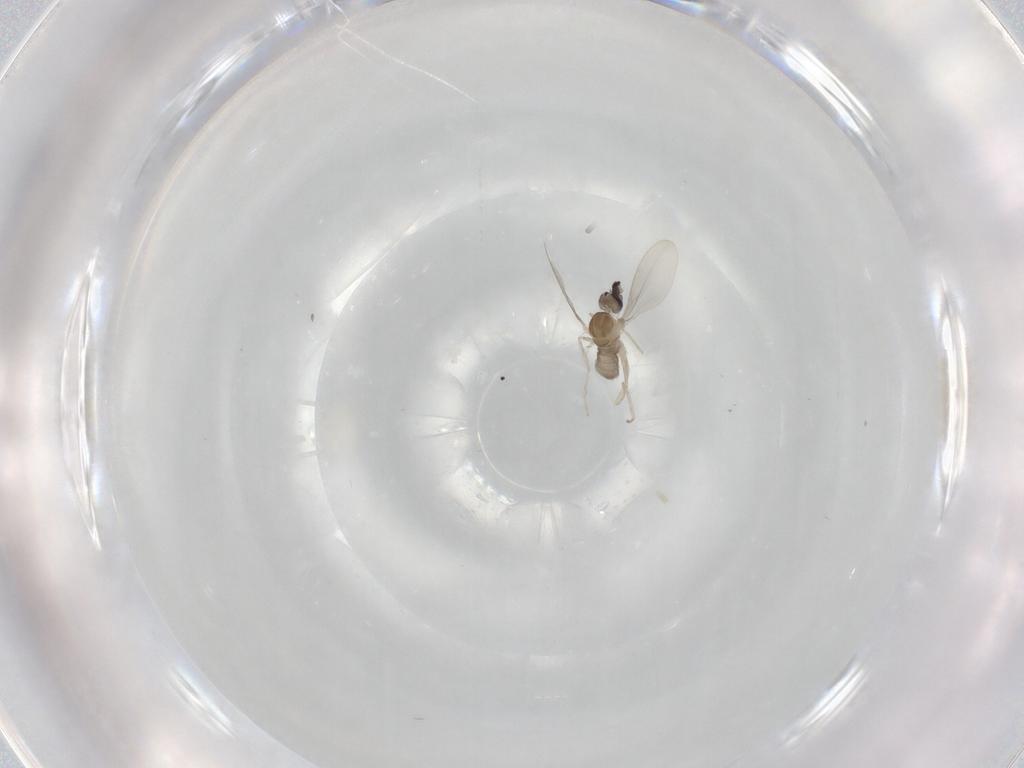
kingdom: Animalia
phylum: Arthropoda
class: Insecta
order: Diptera
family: Cecidomyiidae
